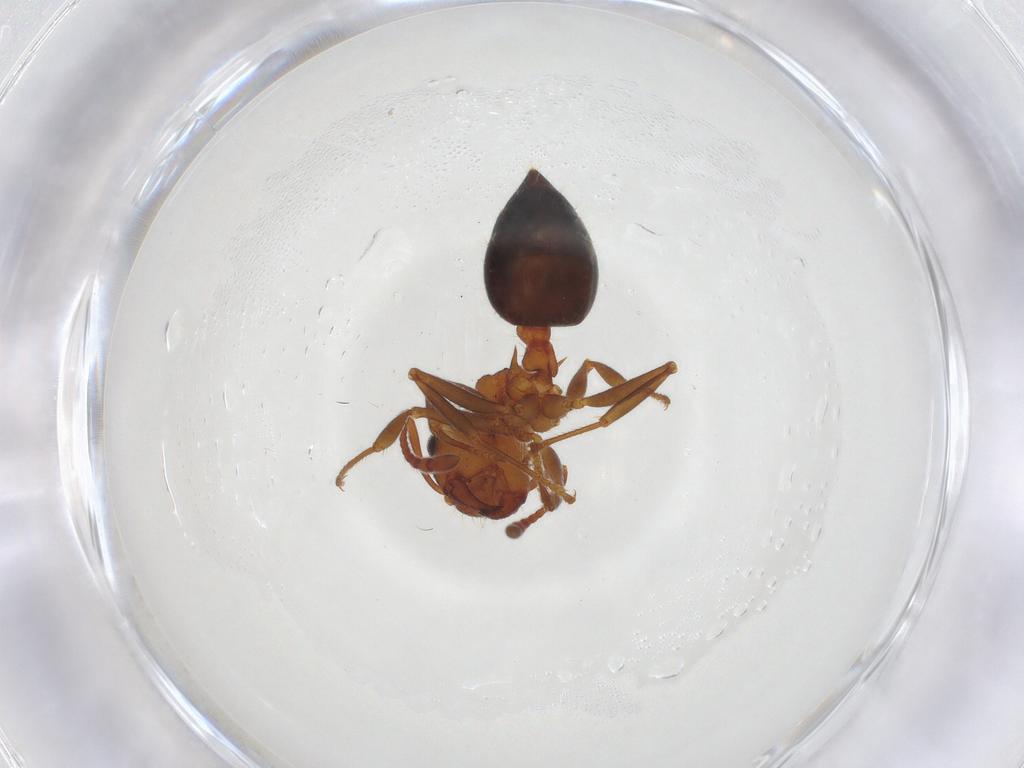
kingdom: Animalia
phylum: Arthropoda
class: Insecta
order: Hymenoptera
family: Formicidae
